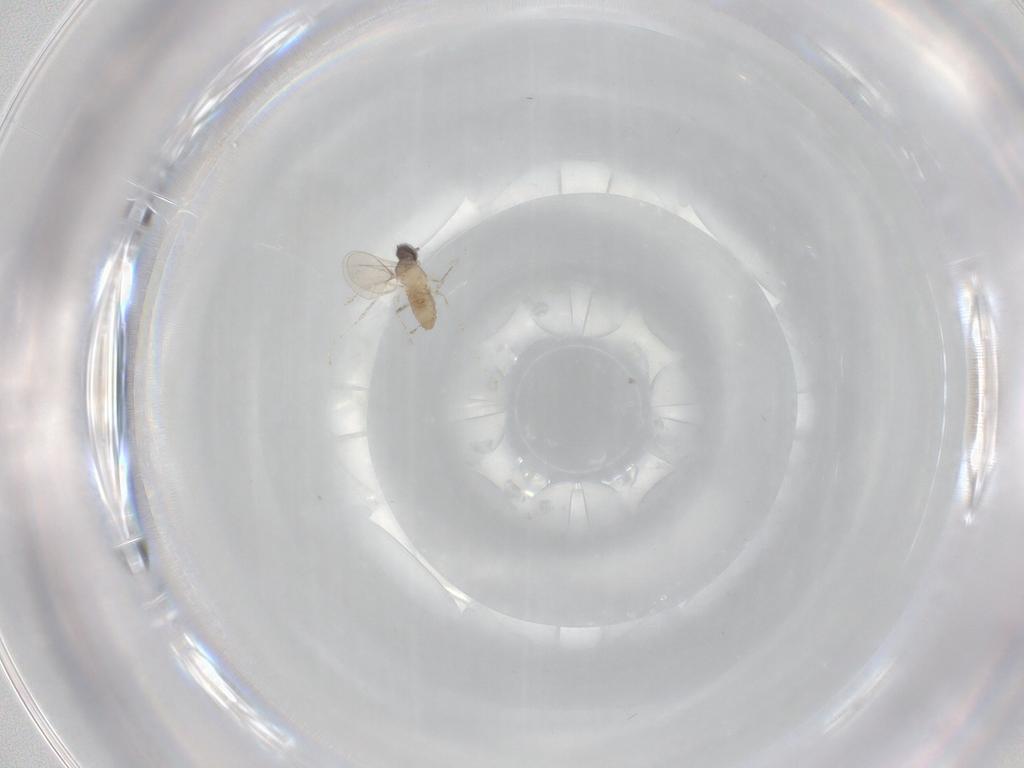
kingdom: Animalia
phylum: Arthropoda
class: Insecta
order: Diptera
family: Cecidomyiidae
